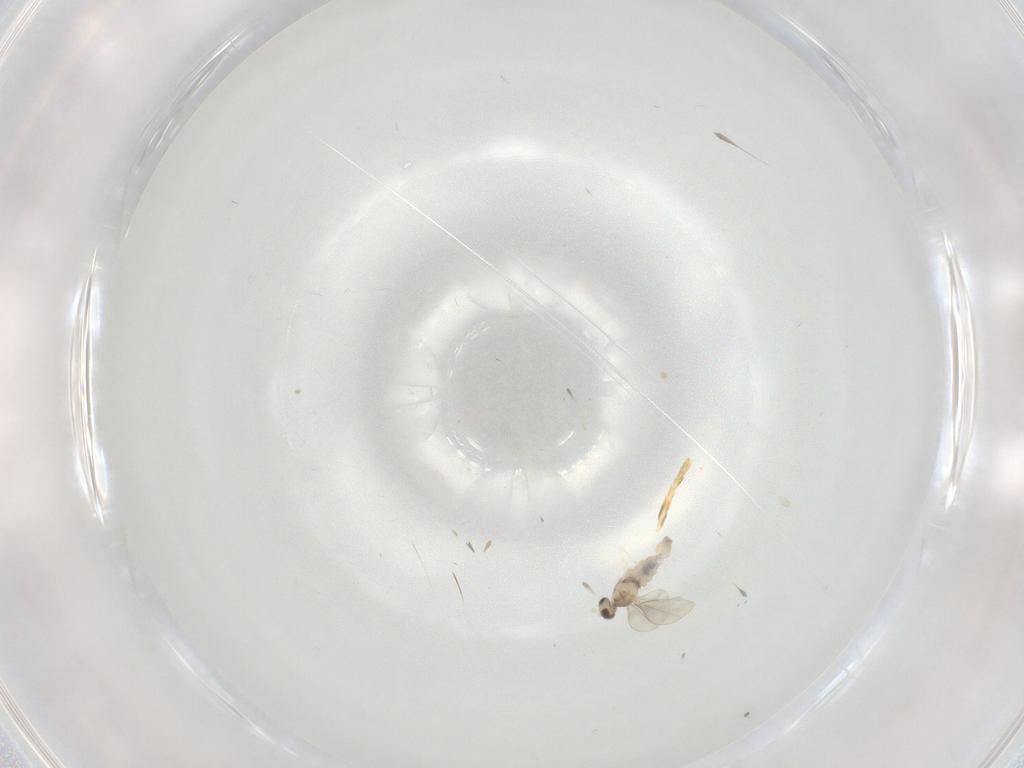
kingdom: Animalia
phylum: Arthropoda
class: Insecta
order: Diptera
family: Cecidomyiidae
